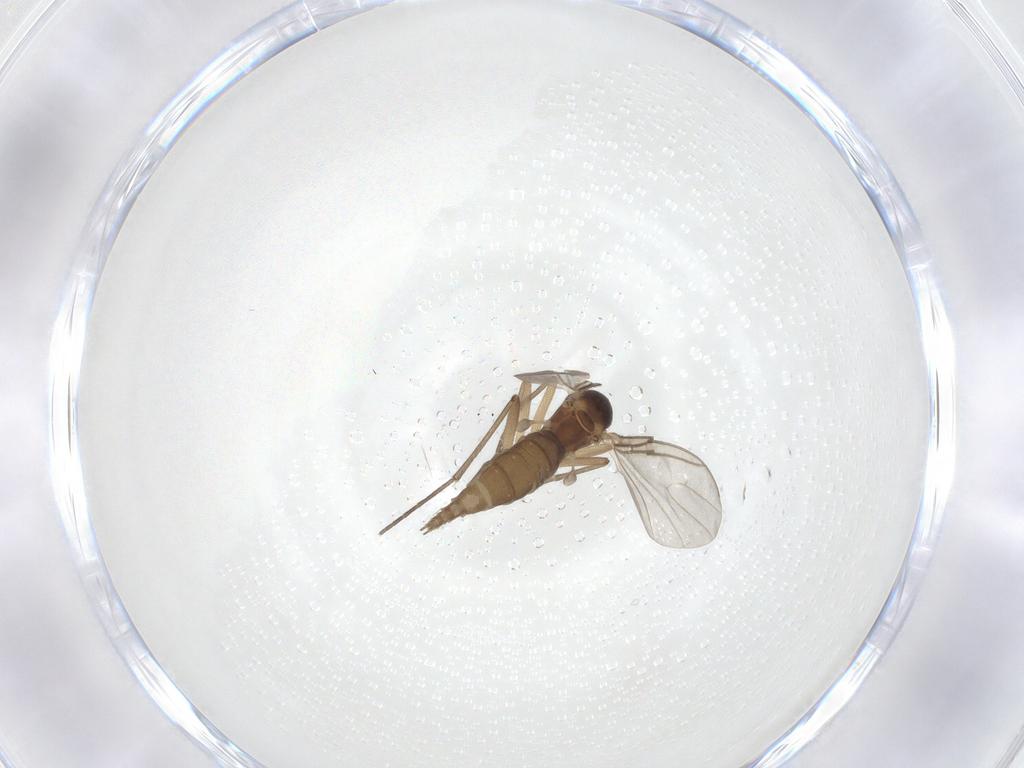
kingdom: Animalia
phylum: Arthropoda
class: Insecta
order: Diptera
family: Sciaridae
